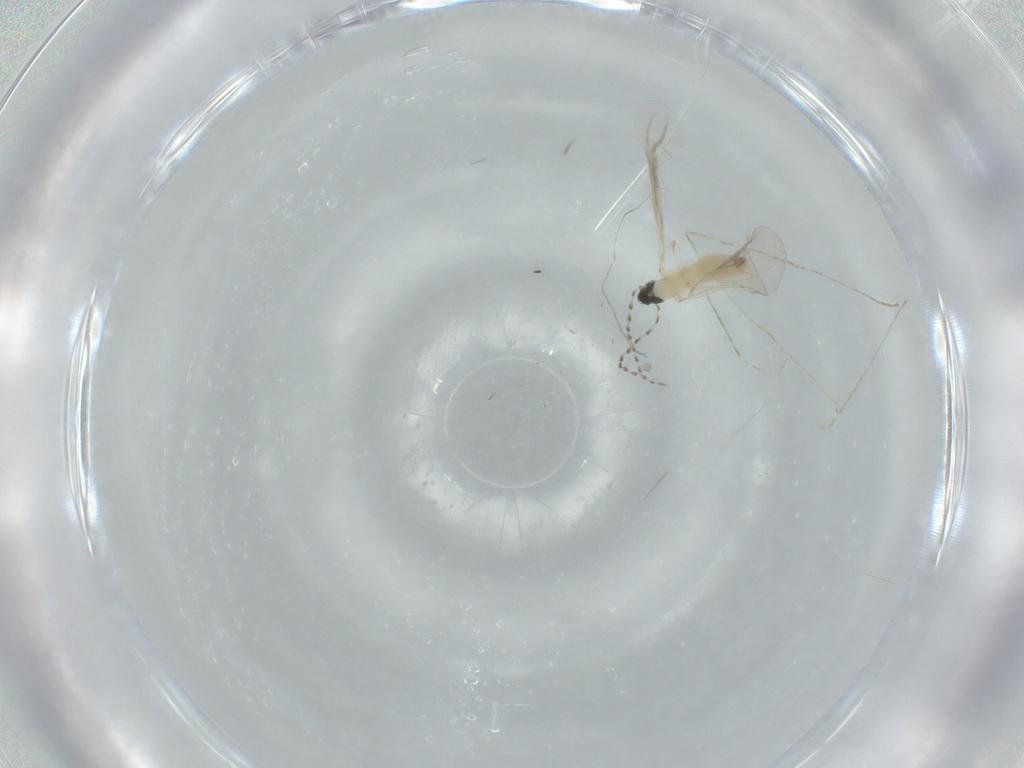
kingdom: Animalia
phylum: Arthropoda
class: Insecta
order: Diptera
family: Cecidomyiidae
